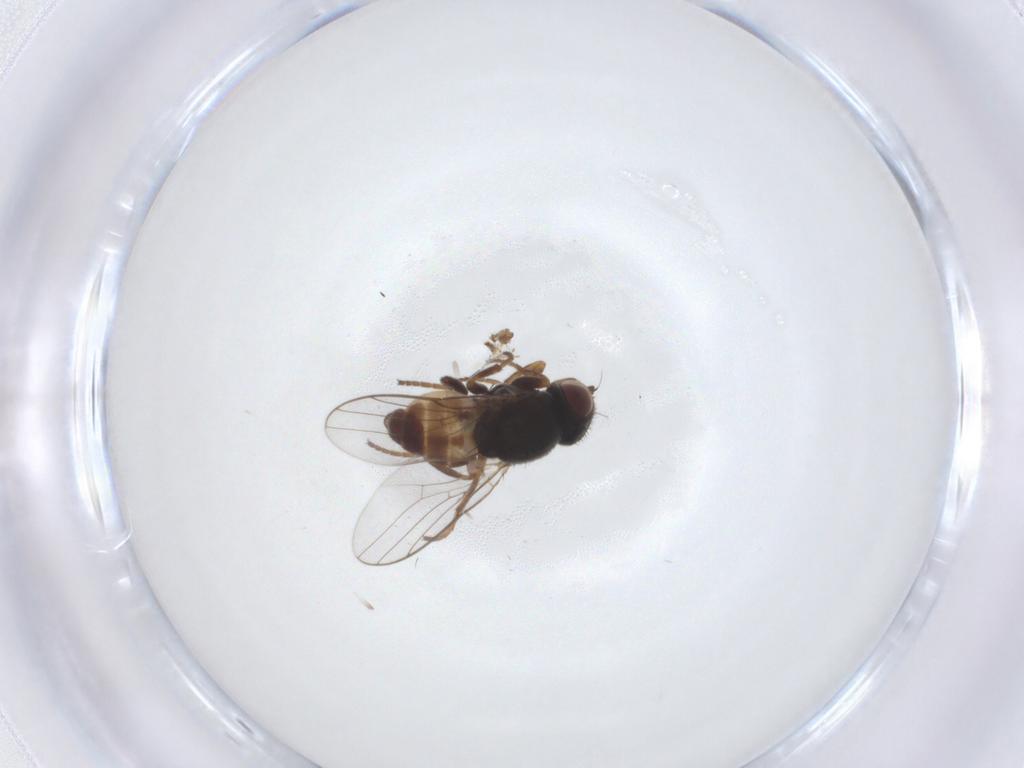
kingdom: Animalia
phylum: Arthropoda
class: Insecta
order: Diptera
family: Chloropidae
